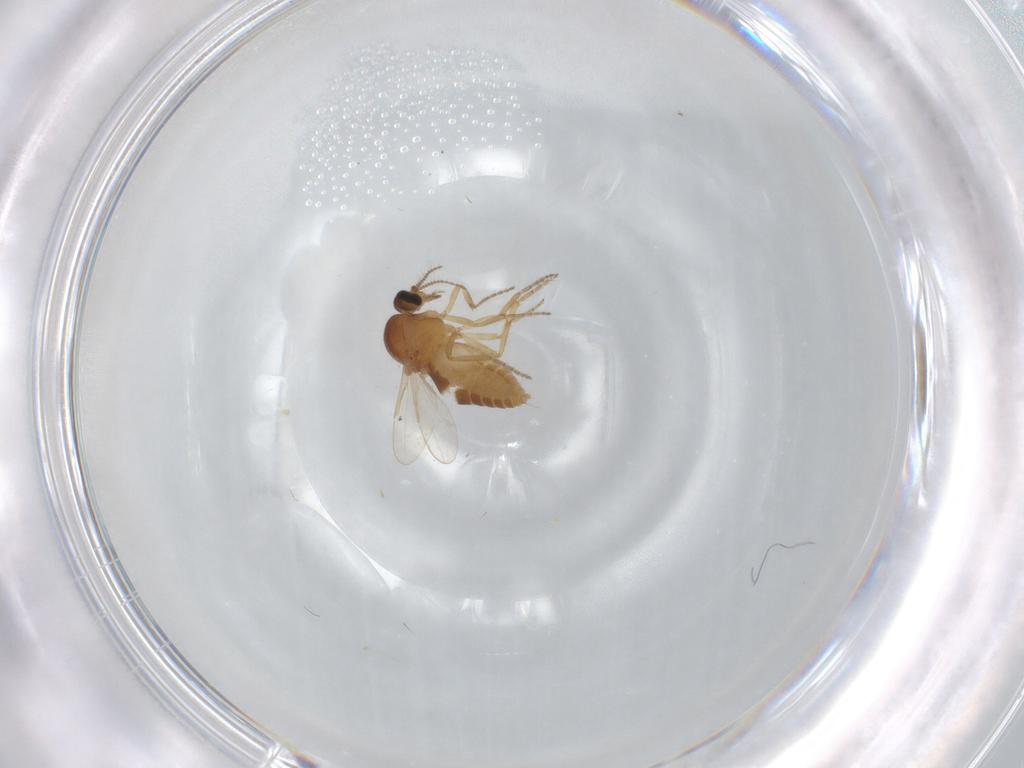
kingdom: Animalia
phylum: Arthropoda
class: Insecta
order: Diptera
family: Ceratopogonidae
